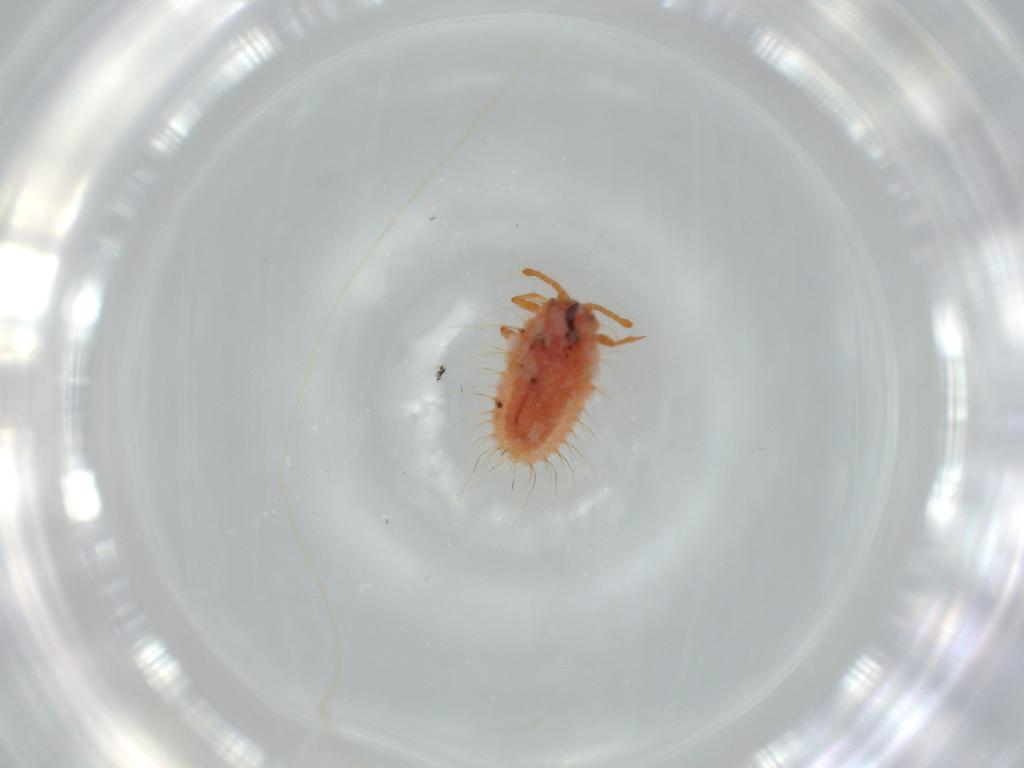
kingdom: Animalia
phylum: Arthropoda
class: Insecta
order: Hemiptera
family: Coccoidea_incertae_sedis
